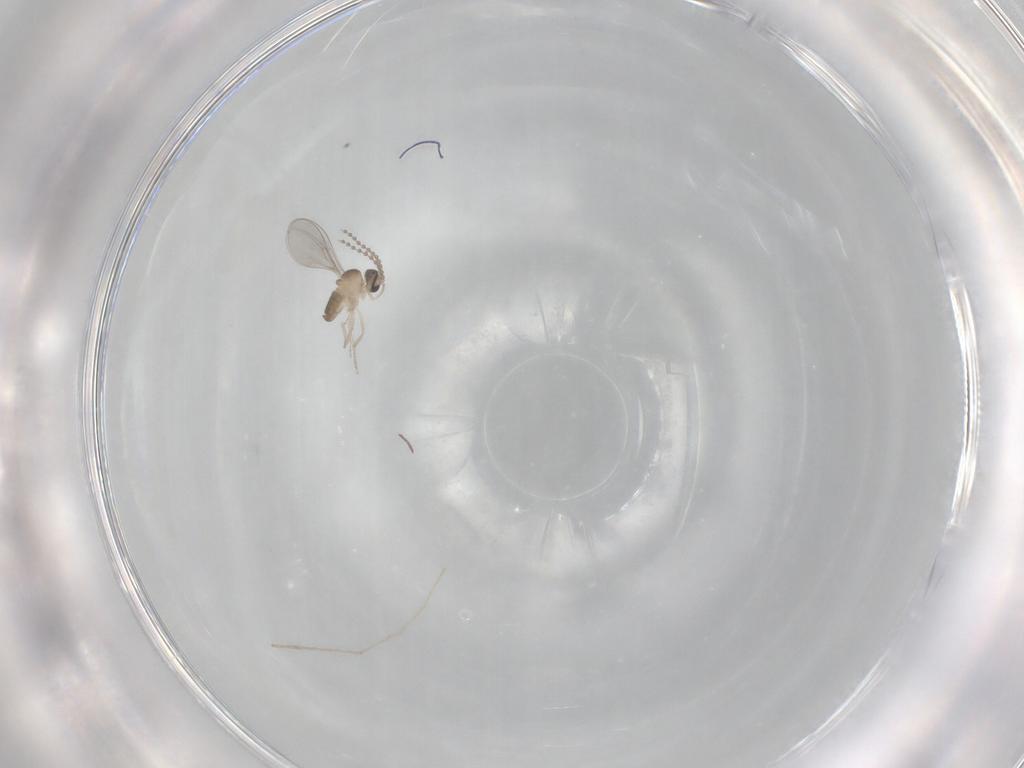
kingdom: Animalia
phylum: Arthropoda
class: Insecta
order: Diptera
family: Chironomidae
